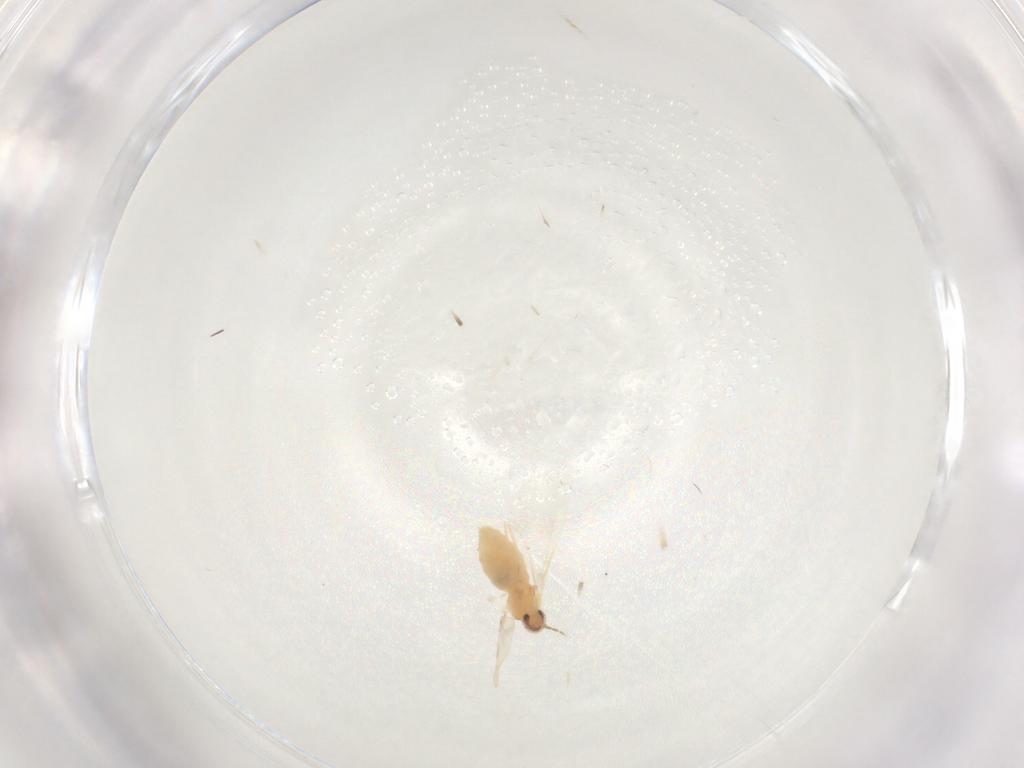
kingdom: Animalia
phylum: Arthropoda
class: Insecta
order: Diptera
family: Cecidomyiidae
